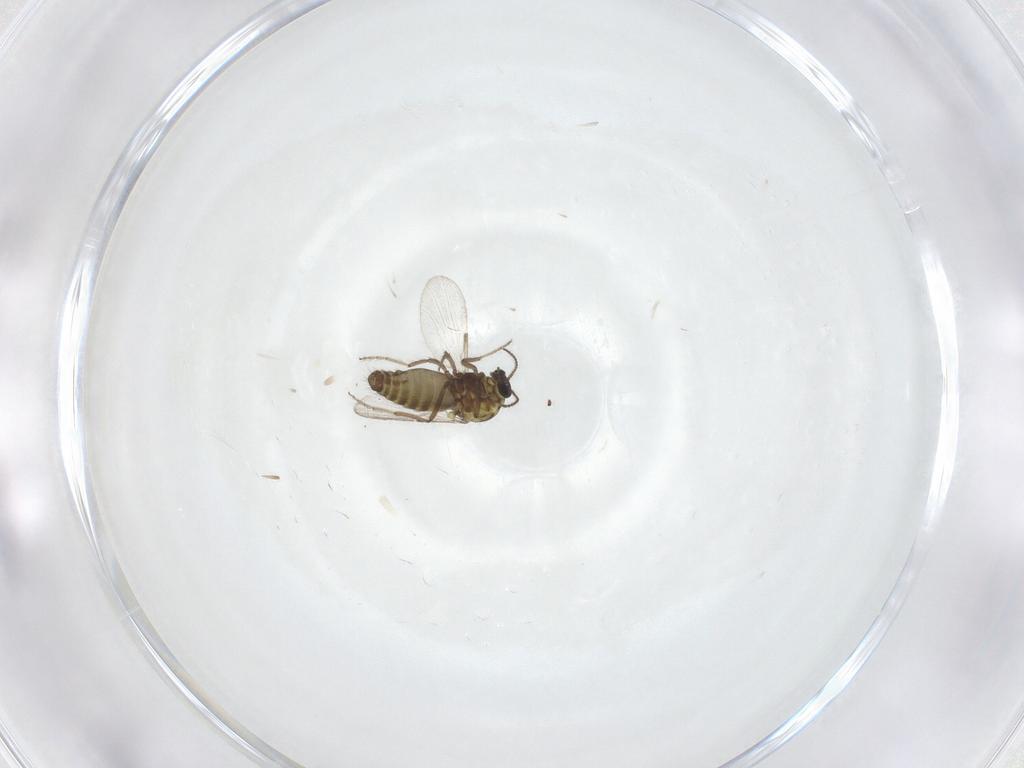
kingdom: Animalia
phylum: Arthropoda
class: Insecta
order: Diptera
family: Ceratopogonidae
